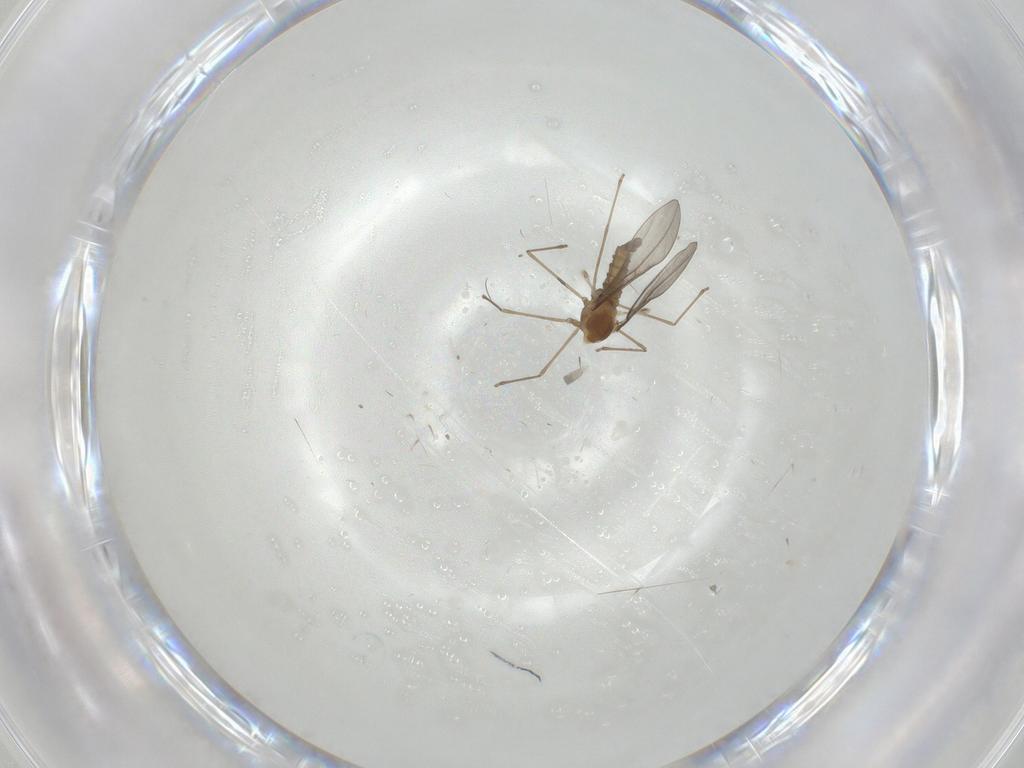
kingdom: Animalia
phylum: Arthropoda
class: Insecta
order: Diptera
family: Cecidomyiidae
